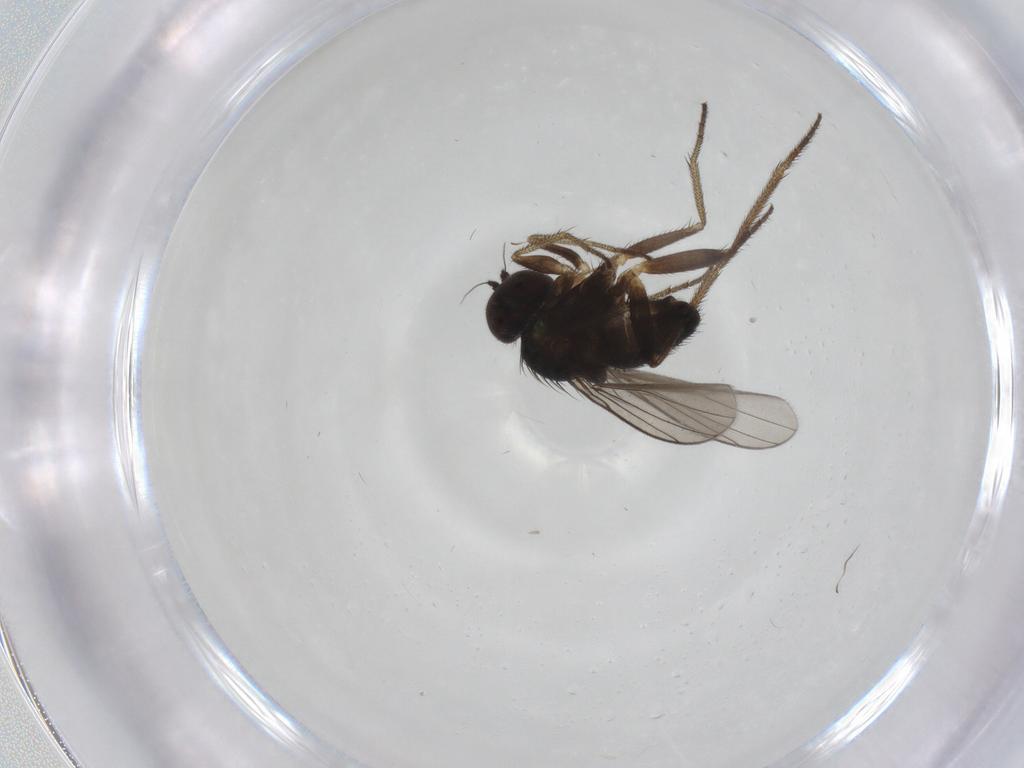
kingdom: Animalia
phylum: Arthropoda
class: Insecta
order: Diptera
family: Dolichopodidae
